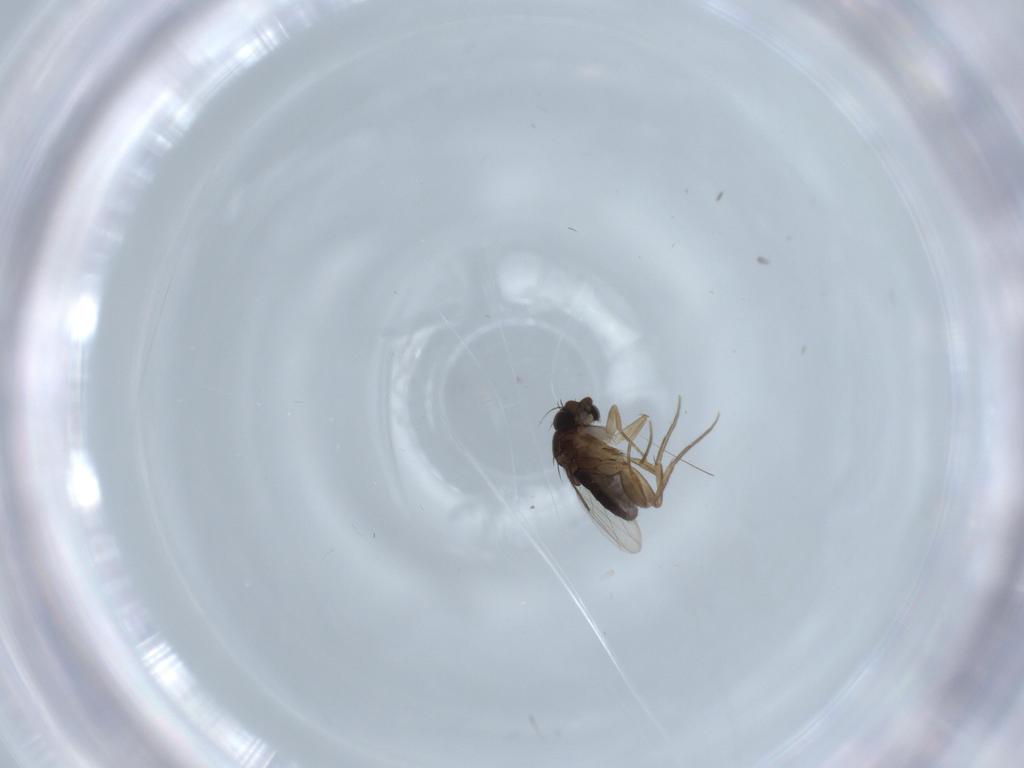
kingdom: Animalia
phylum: Arthropoda
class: Insecta
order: Diptera
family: Phoridae
